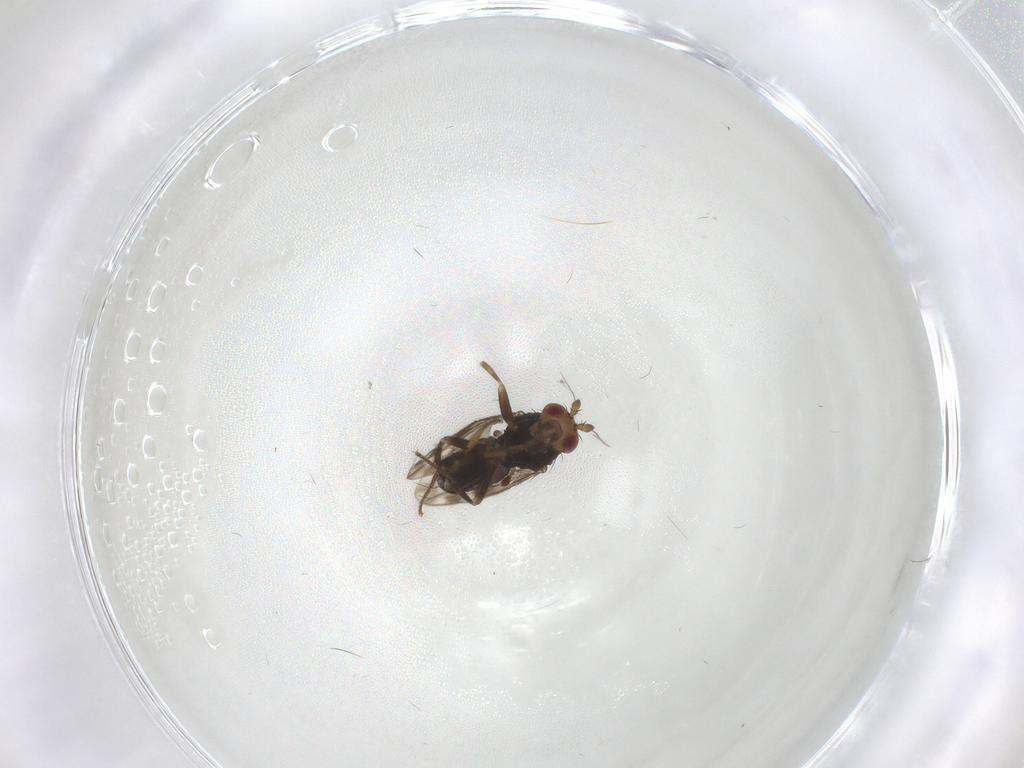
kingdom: Animalia
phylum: Arthropoda
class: Insecta
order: Diptera
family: Sphaeroceridae
